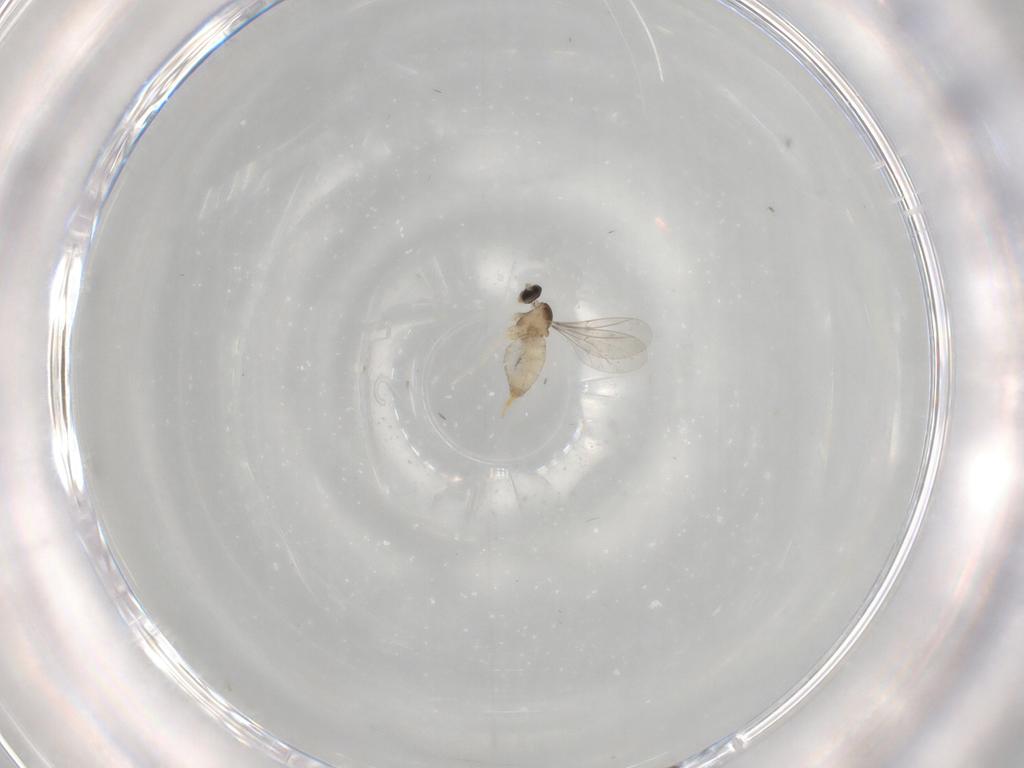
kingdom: Animalia
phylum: Arthropoda
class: Insecta
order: Diptera
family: Cecidomyiidae
